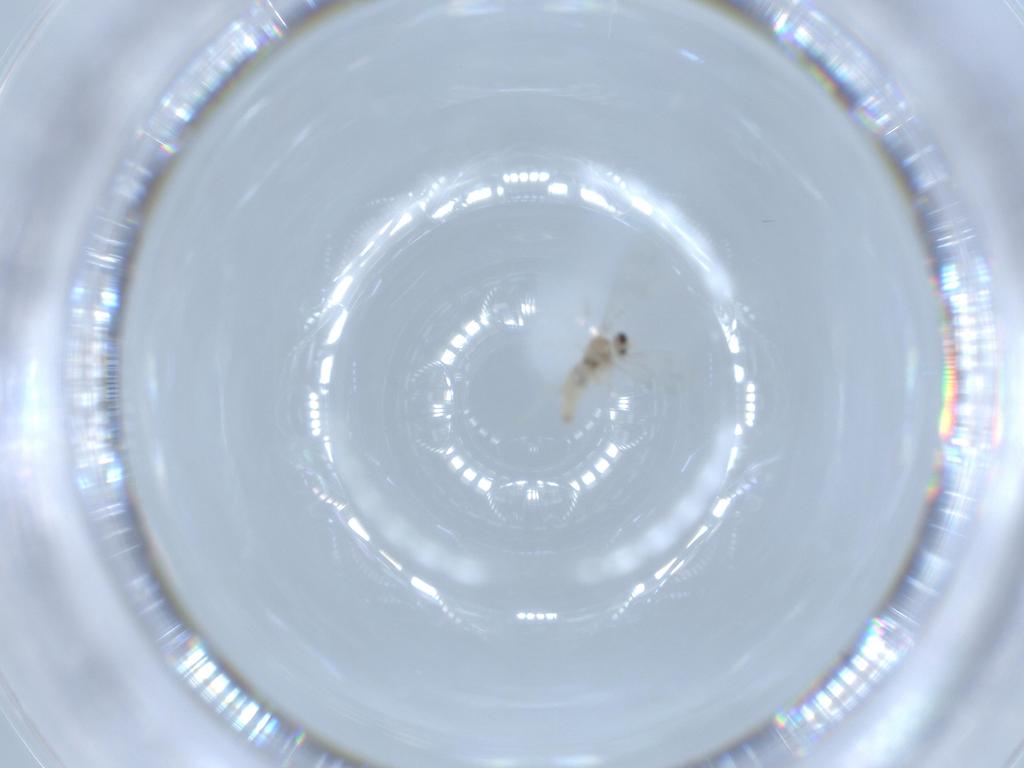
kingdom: Animalia
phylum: Arthropoda
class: Insecta
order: Diptera
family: Cecidomyiidae
